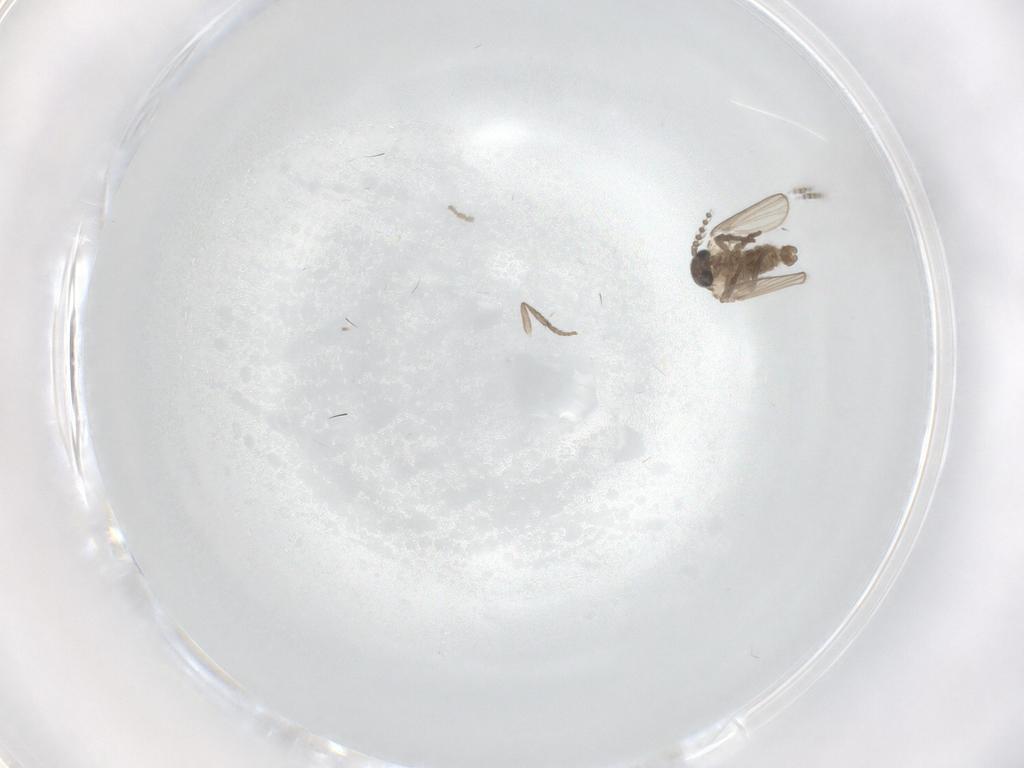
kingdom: Animalia
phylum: Arthropoda
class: Insecta
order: Diptera
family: Psychodidae
